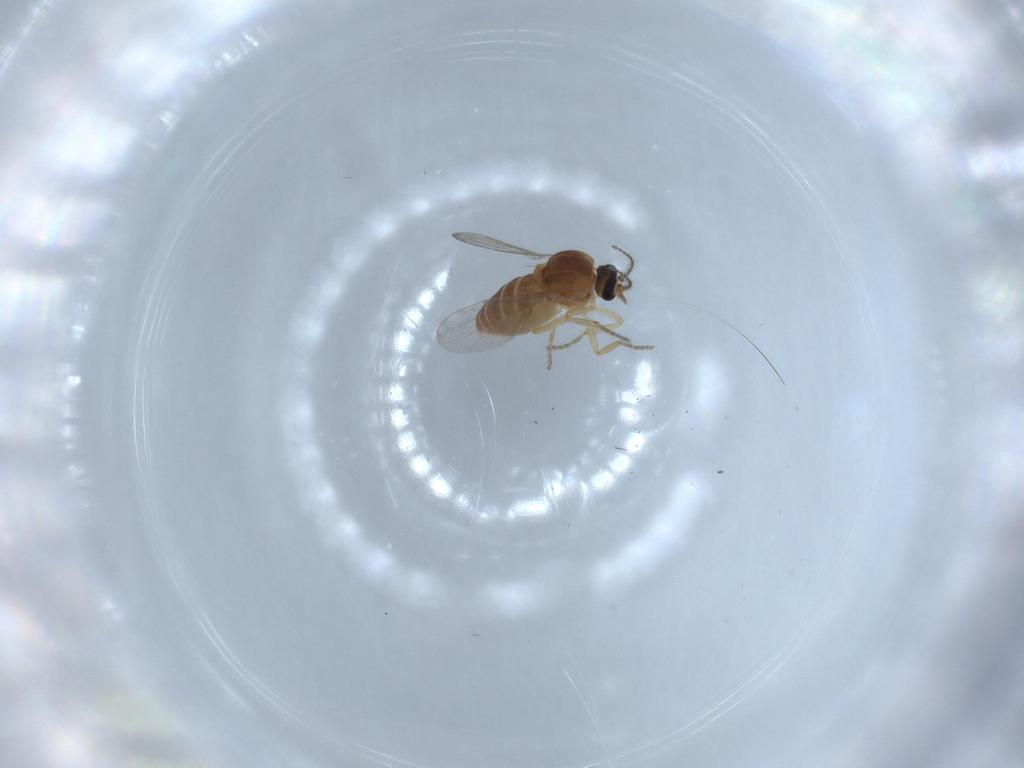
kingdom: Animalia
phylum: Arthropoda
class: Insecta
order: Diptera
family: Ceratopogonidae
